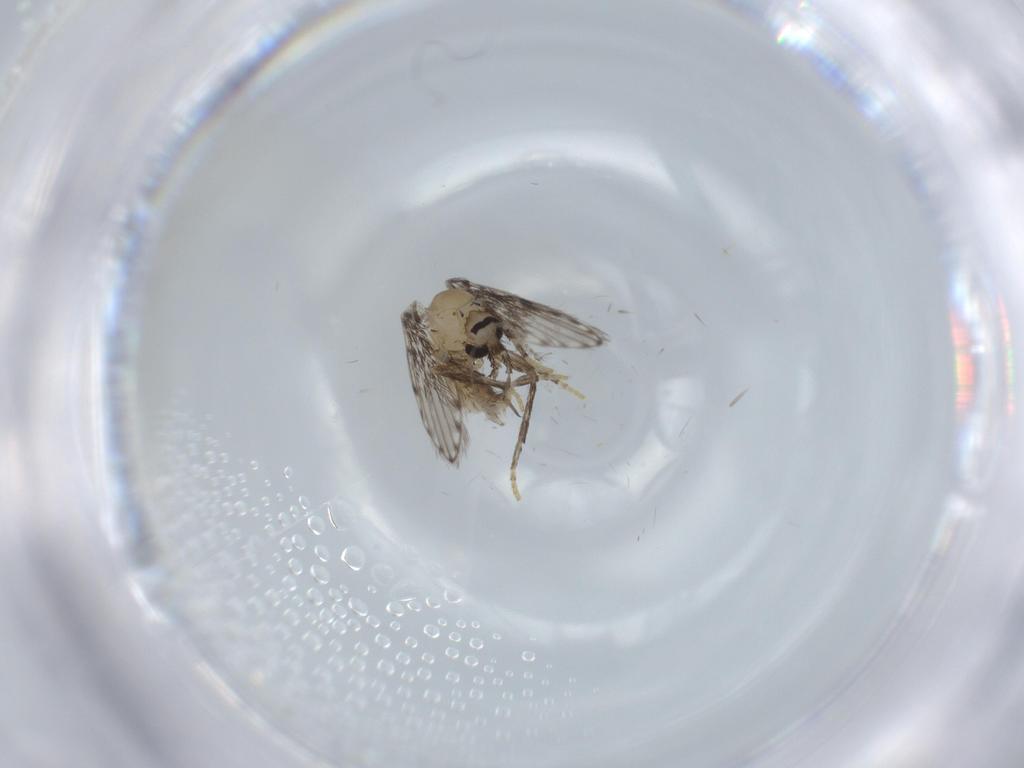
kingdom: Animalia
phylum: Arthropoda
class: Insecta
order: Diptera
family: Psychodidae
